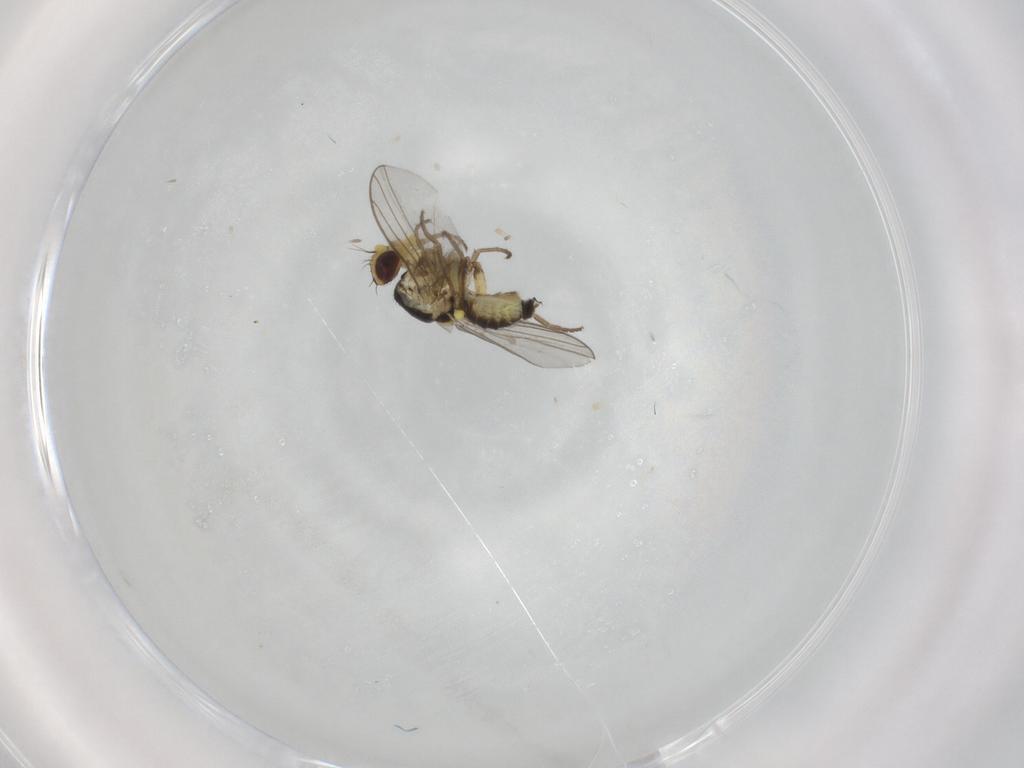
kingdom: Animalia
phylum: Arthropoda
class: Insecta
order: Diptera
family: Agromyzidae
